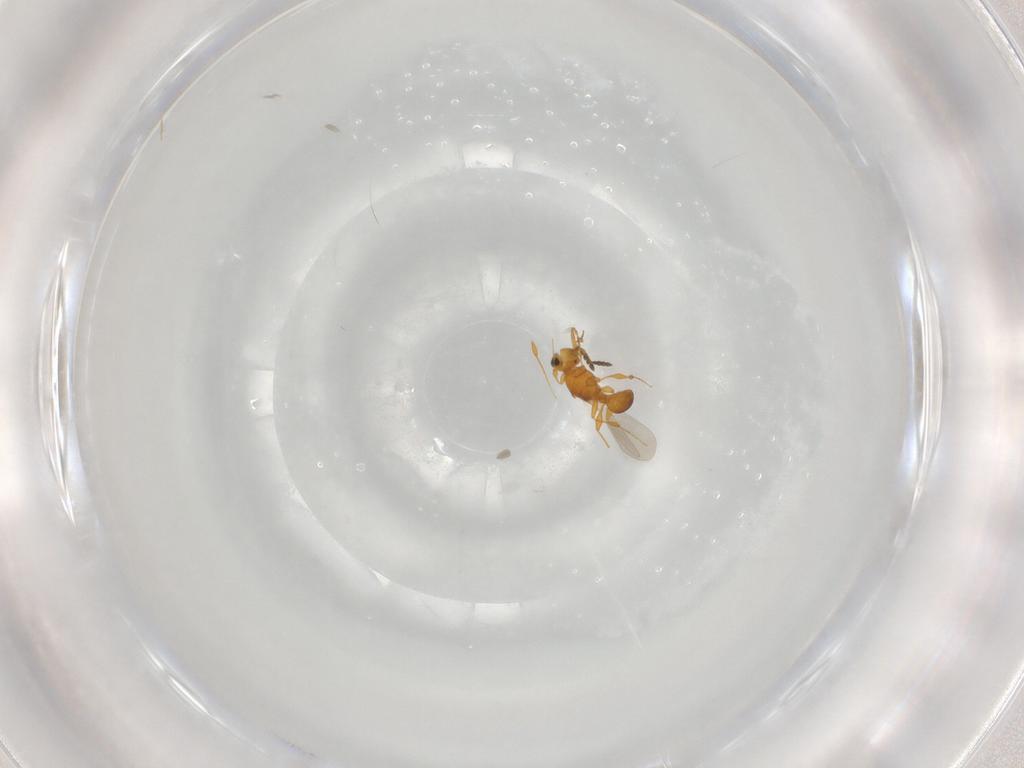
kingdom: Animalia
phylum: Arthropoda
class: Insecta
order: Hymenoptera
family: Platygastridae
